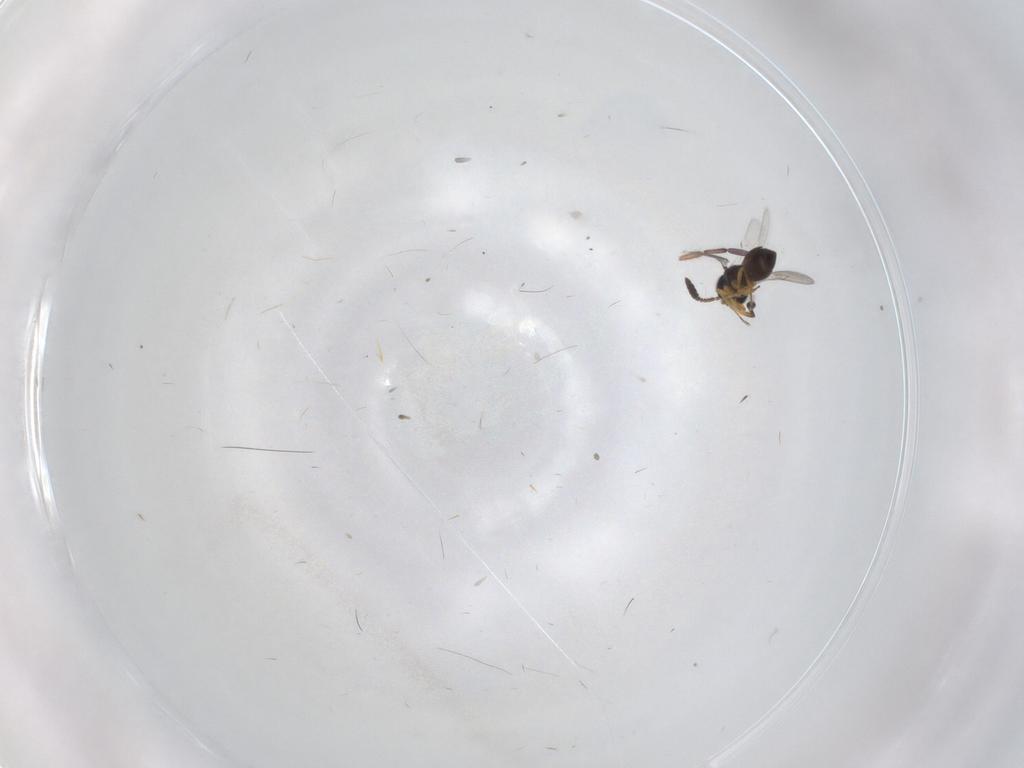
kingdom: Animalia
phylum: Arthropoda
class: Insecta
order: Hymenoptera
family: Scelionidae
